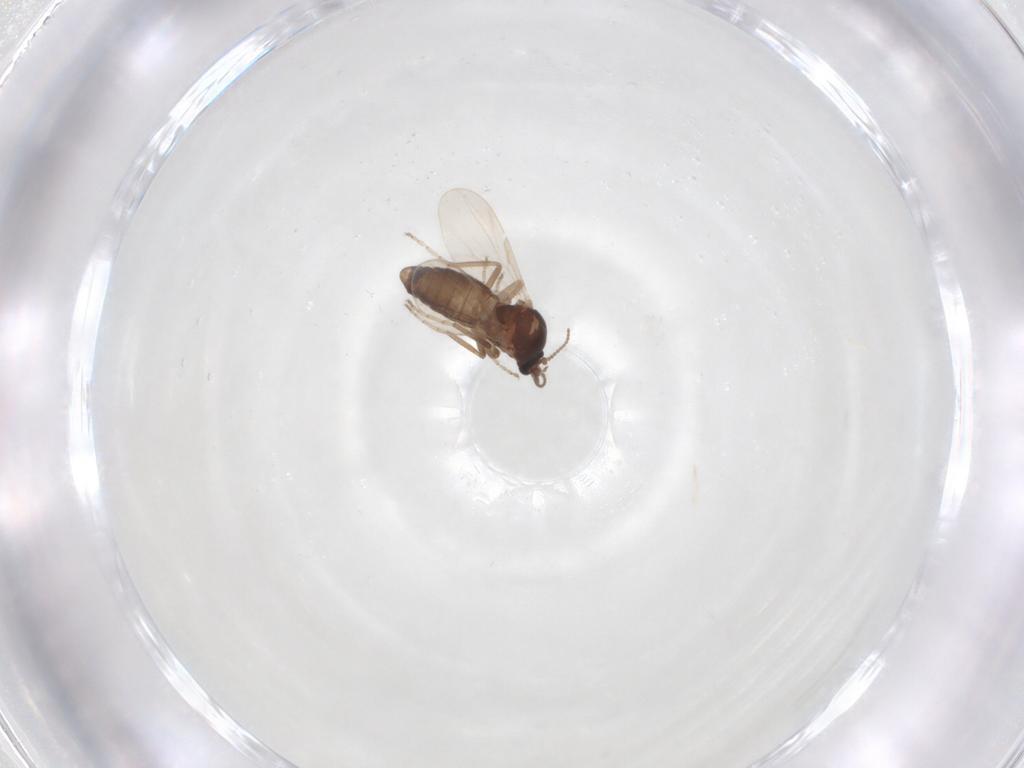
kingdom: Animalia
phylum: Arthropoda
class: Insecta
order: Diptera
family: Ceratopogonidae
